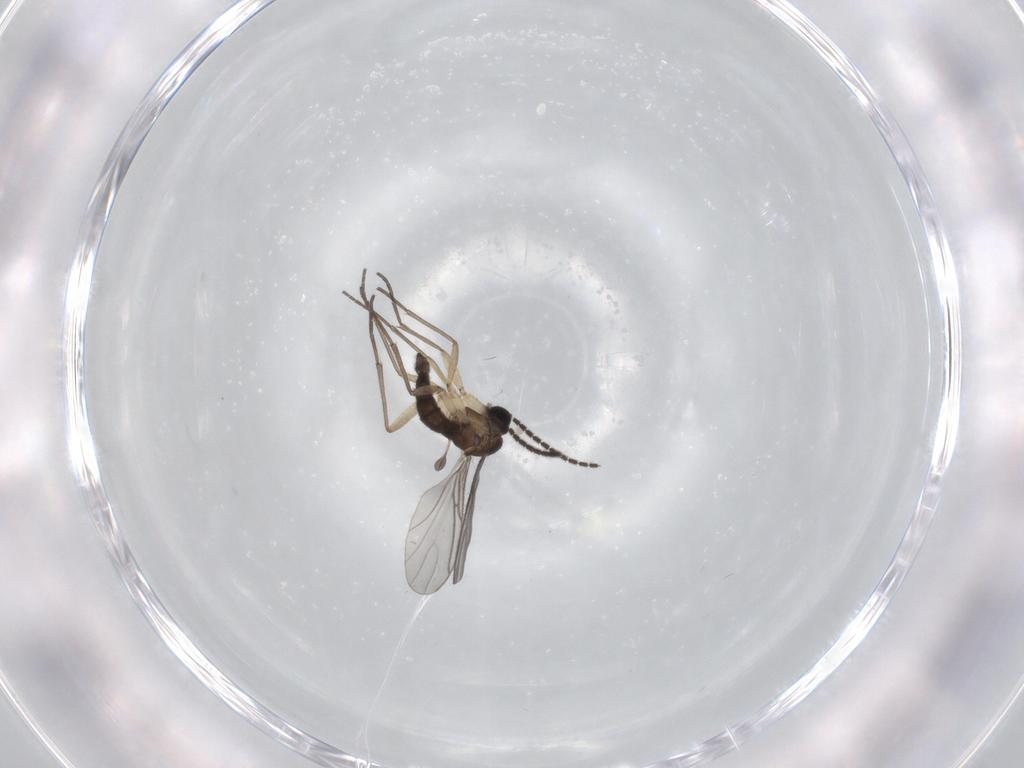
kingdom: Animalia
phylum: Arthropoda
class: Insecta
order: Diptera
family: Sciaridae
